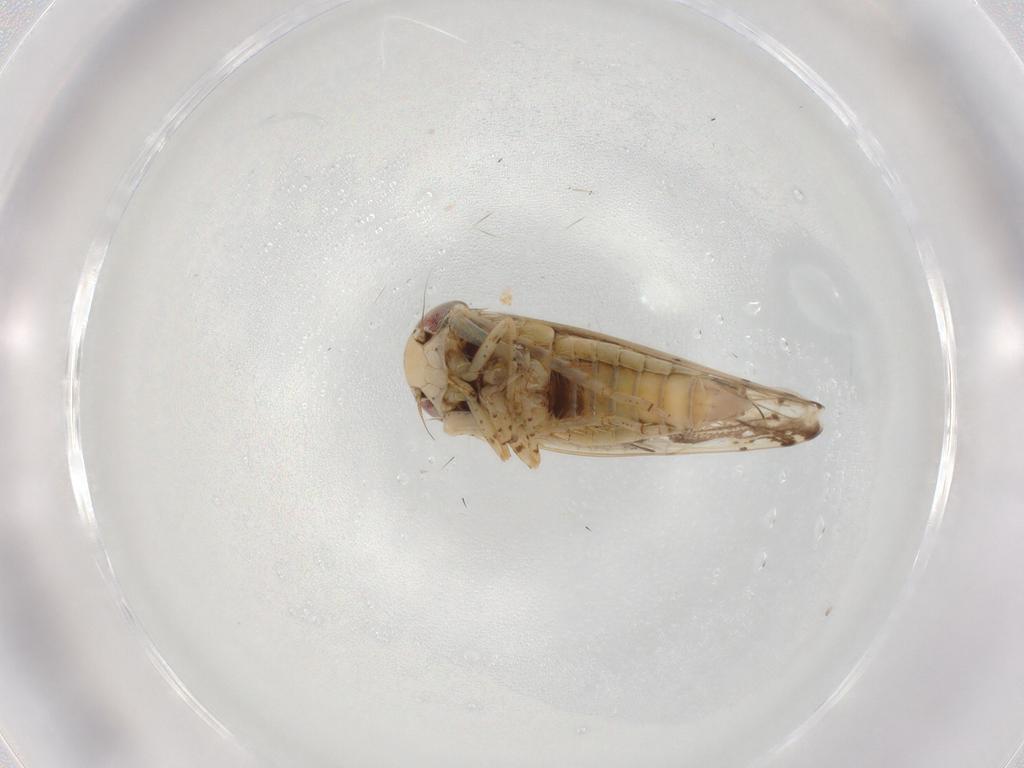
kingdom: Animalia
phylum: Arthropoda
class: Insecta
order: Hemiptera
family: Cicadellidae
